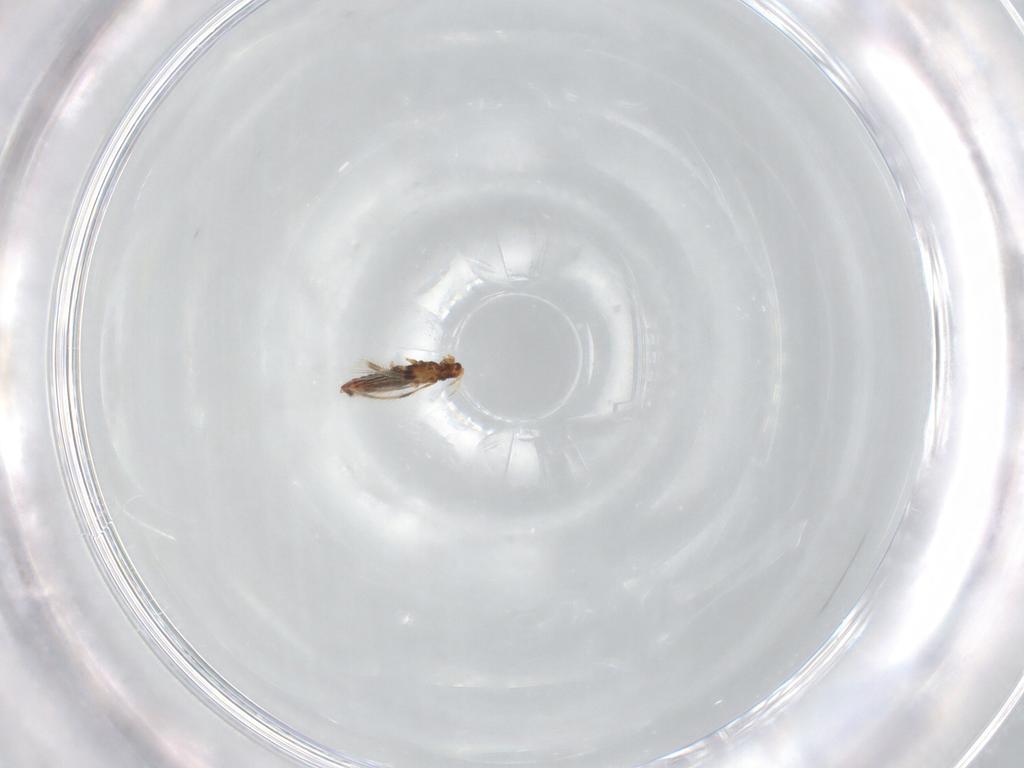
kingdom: Animalia
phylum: Arthropoda
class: Insecta
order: Thysanoptera
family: Thripidae
